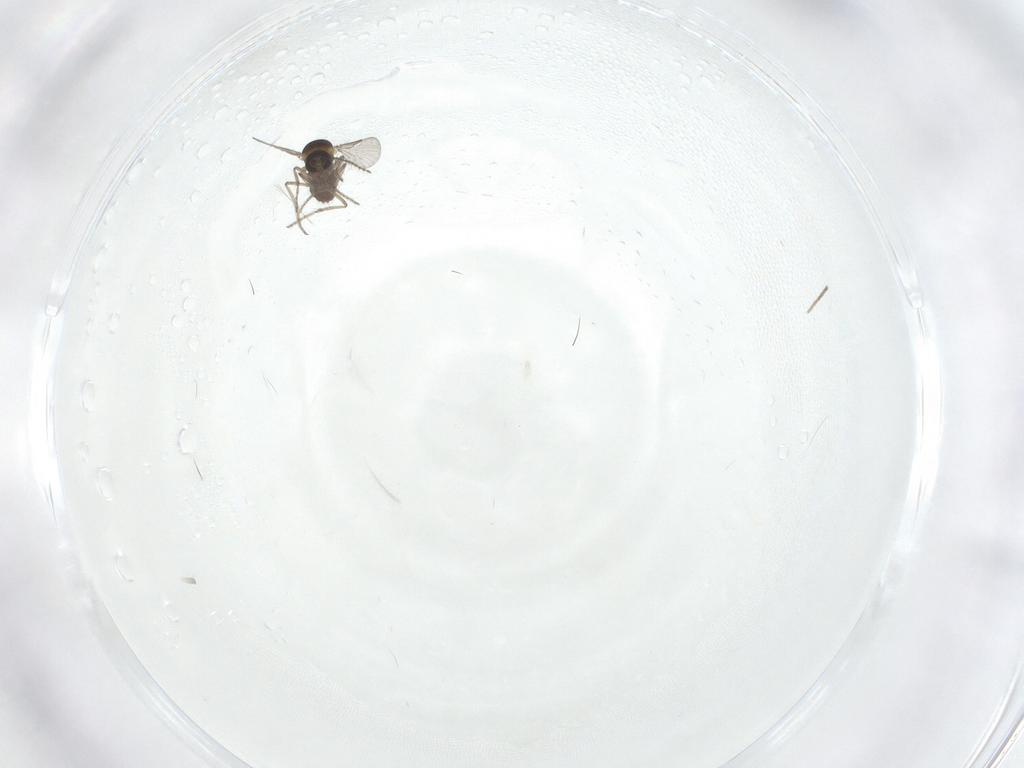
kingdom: Animalia
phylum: Arthropoda
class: Insecta
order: Diptera
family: Ceratopogonidae
